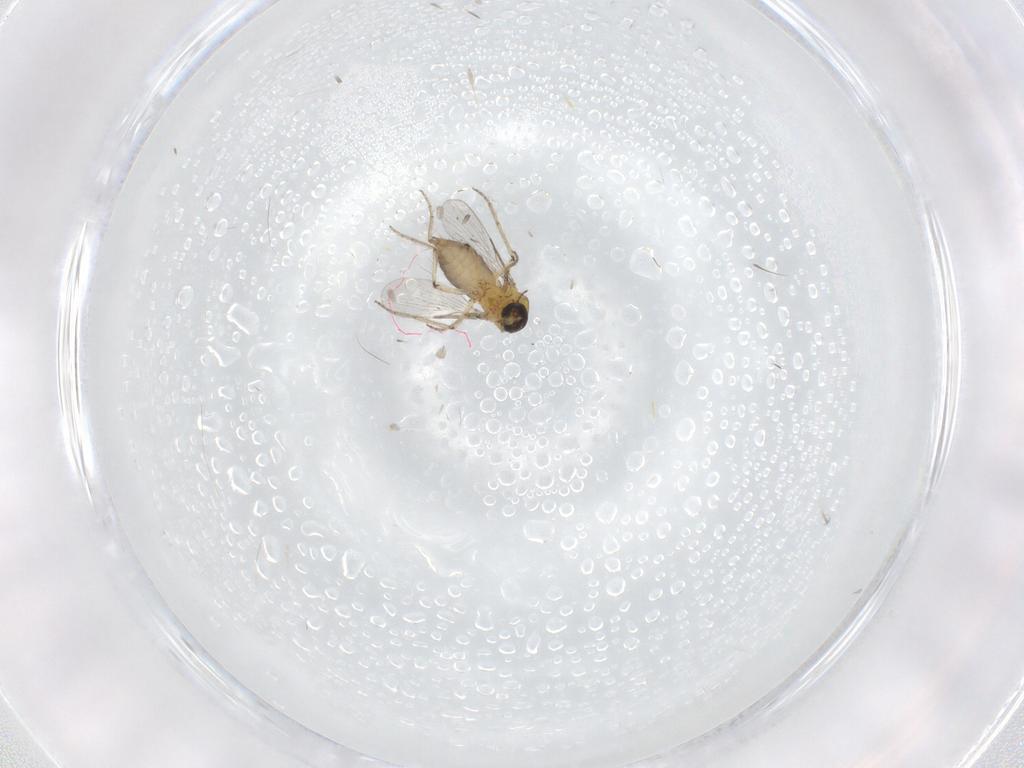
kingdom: Animalia
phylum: Arthropoda
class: Insecta
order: Diptera
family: Ceratopogonidae
